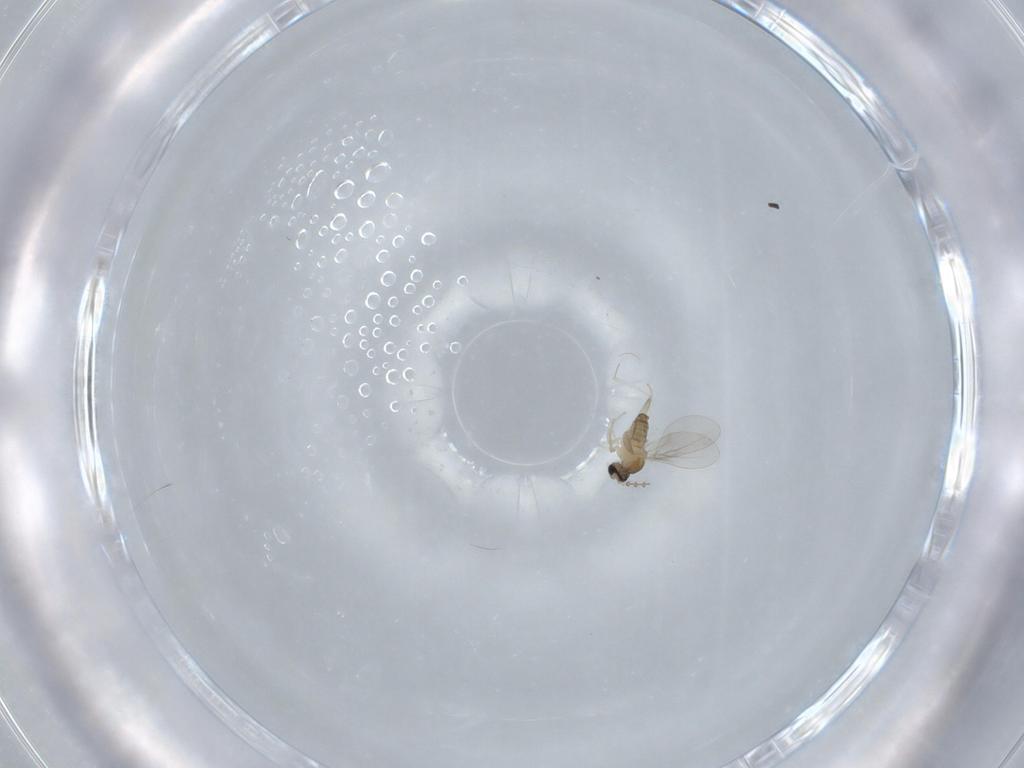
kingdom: Animalia
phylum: Arthropoda
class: Insecta
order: Diptera
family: Cecidomyiidae
